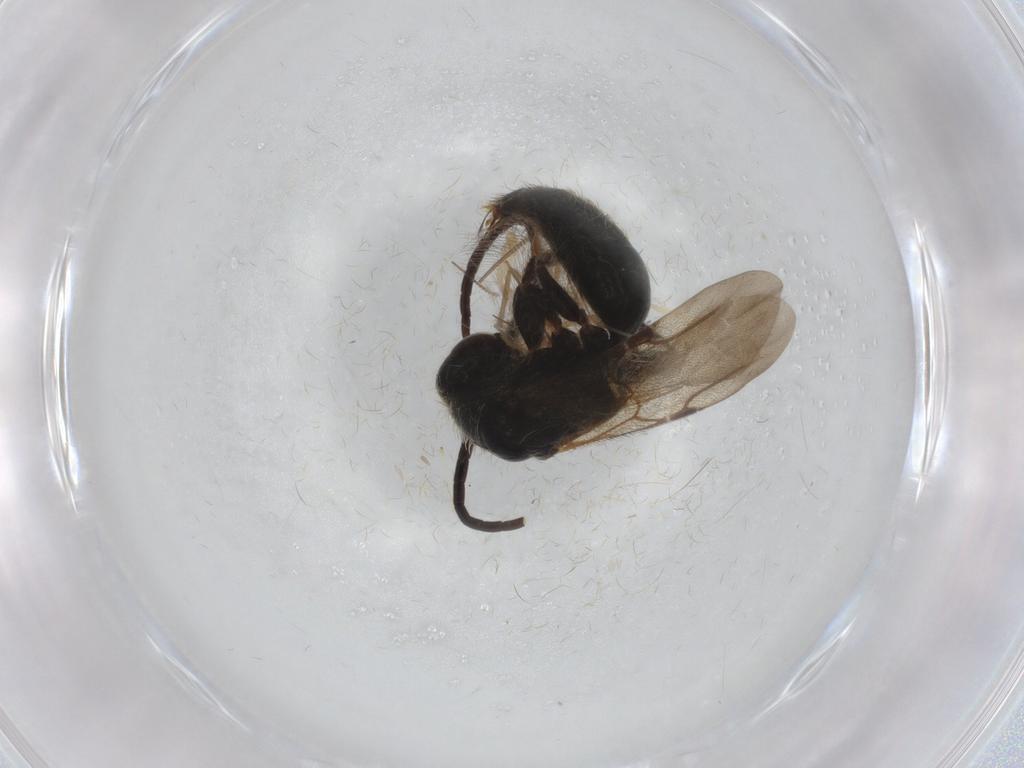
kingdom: Animalia
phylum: Arthropoda
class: Insecta
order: Hymenoptera
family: Bethylidae
